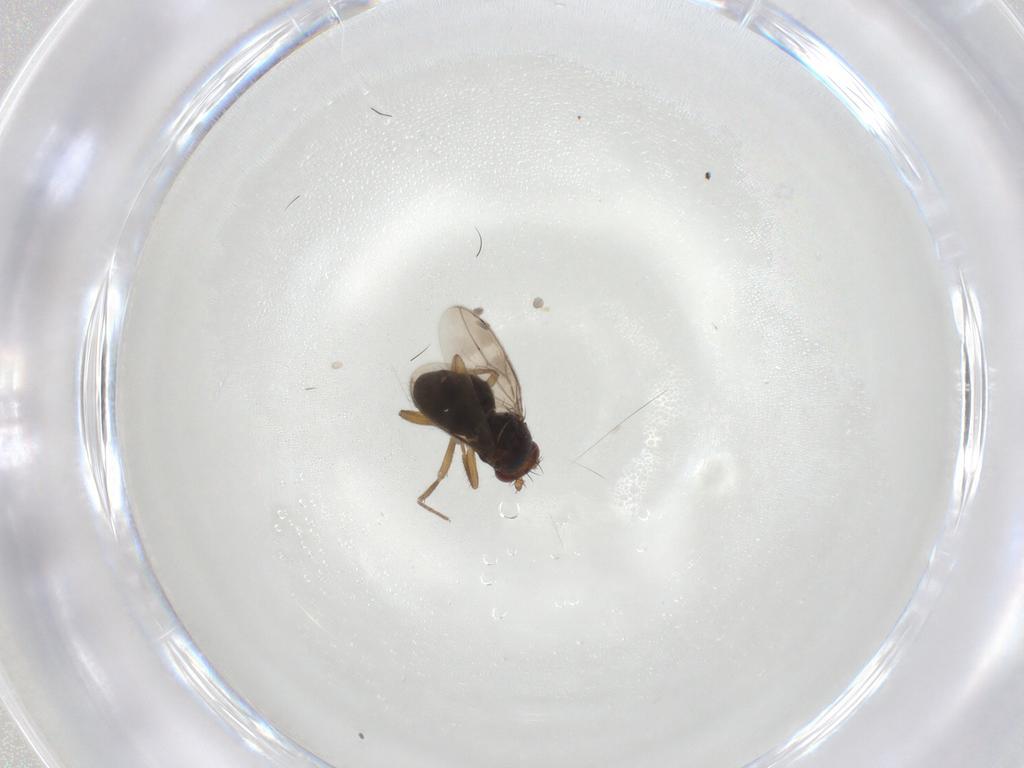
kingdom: Animalia
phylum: Arthropoda
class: Insecta
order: Diptera
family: Sphaeroceridae
